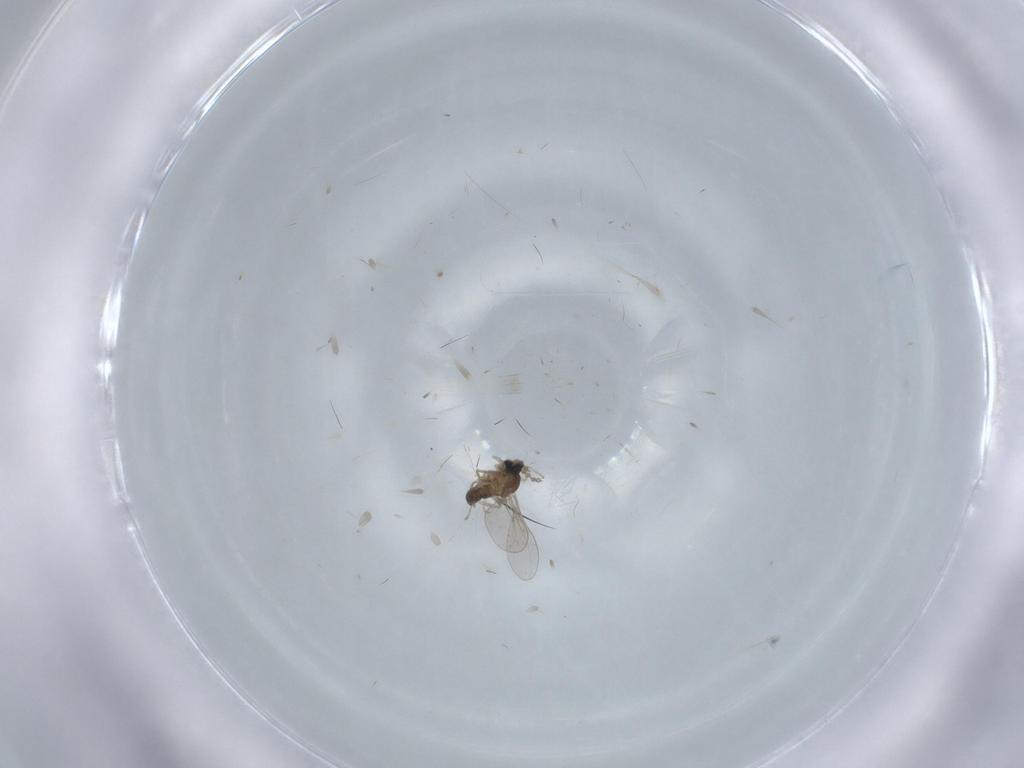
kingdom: Animalia
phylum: Arthropoda
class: Insecta
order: Diptera
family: Cecidomyiidae
